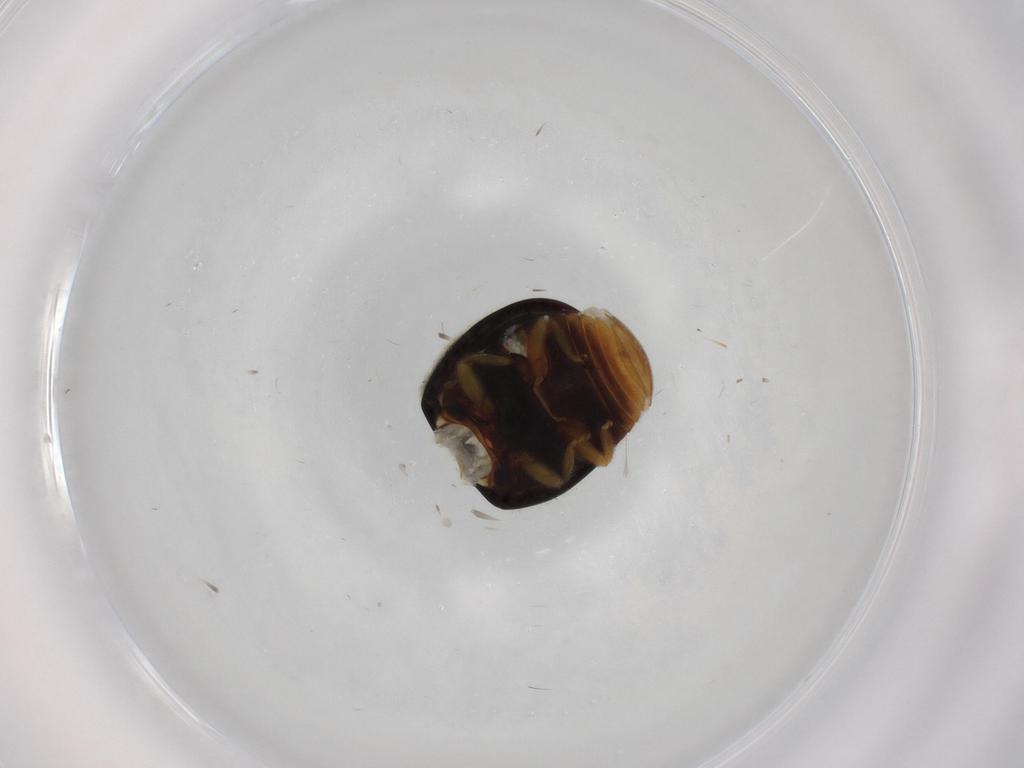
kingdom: Animalia
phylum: Arthropoda
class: Insecta
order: Coleoptera
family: Coccinellidae
